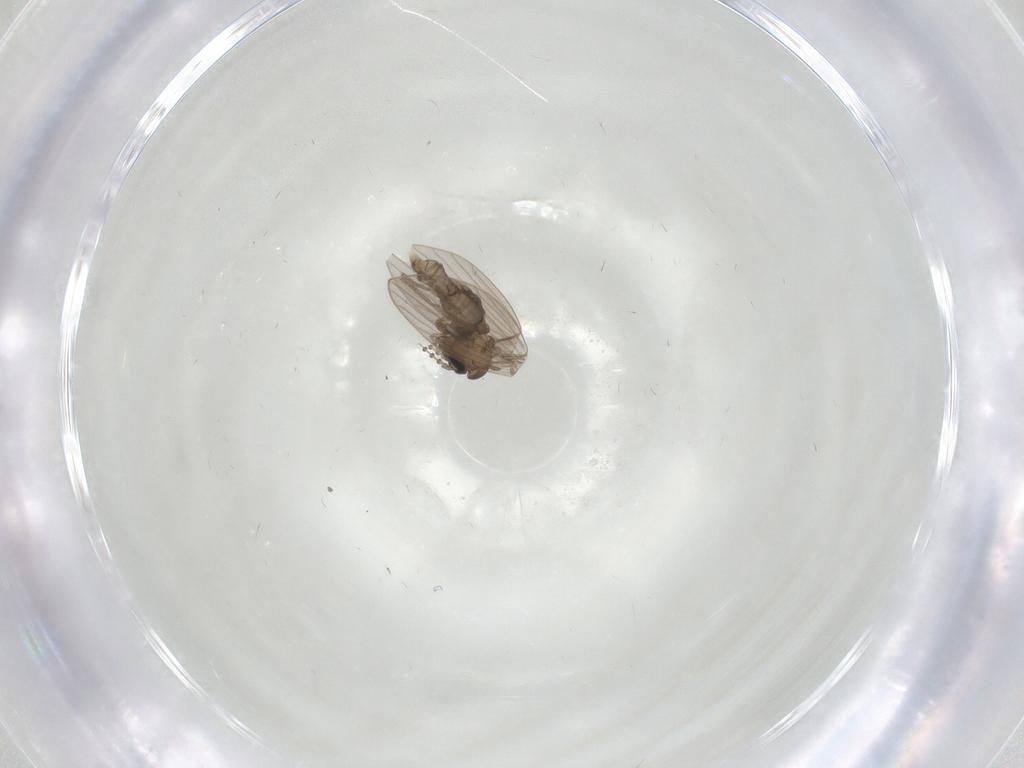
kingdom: Animalia
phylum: Arthropoda
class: Insecta
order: Diptera
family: Psychodidae
